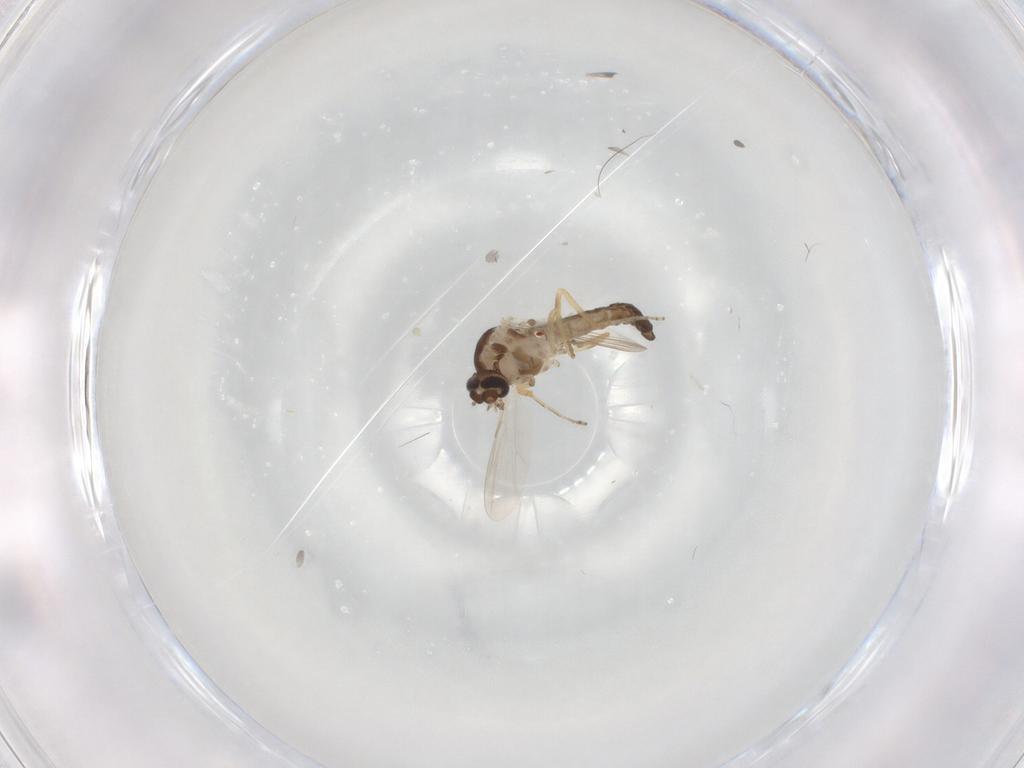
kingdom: Animalia
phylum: Arthropoda
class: Insecta
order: Diptera
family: Ceratopogonidae
